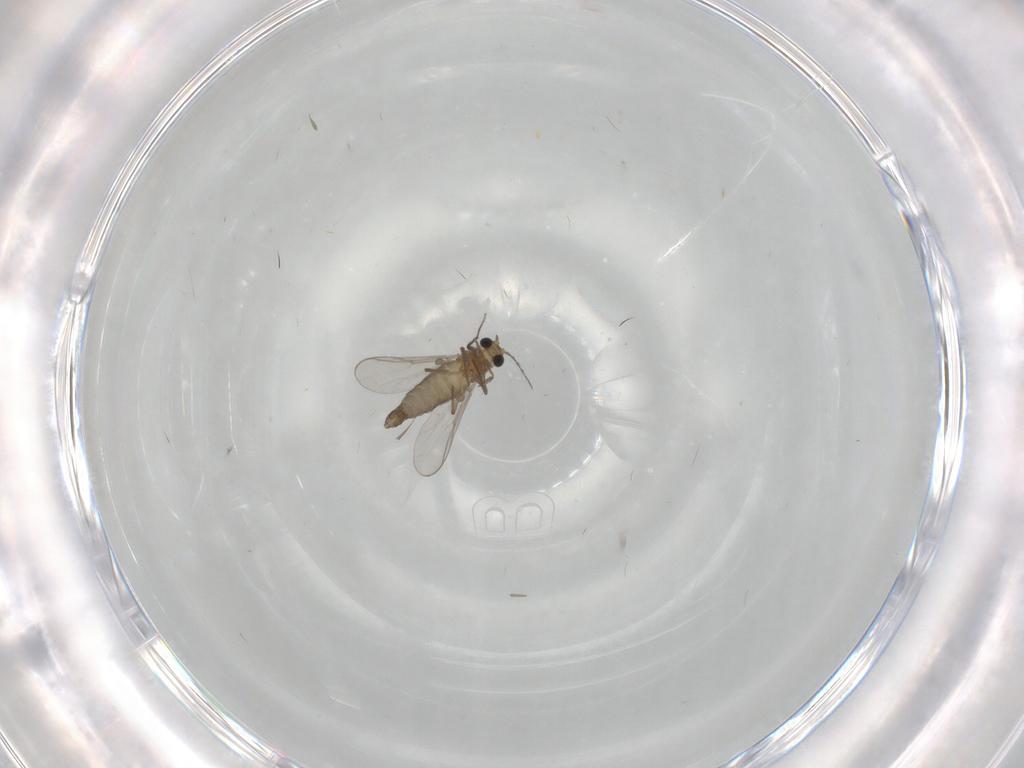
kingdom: Animalia
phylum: Arthropoda
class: Insecta
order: Diptera
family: Chironomidae
